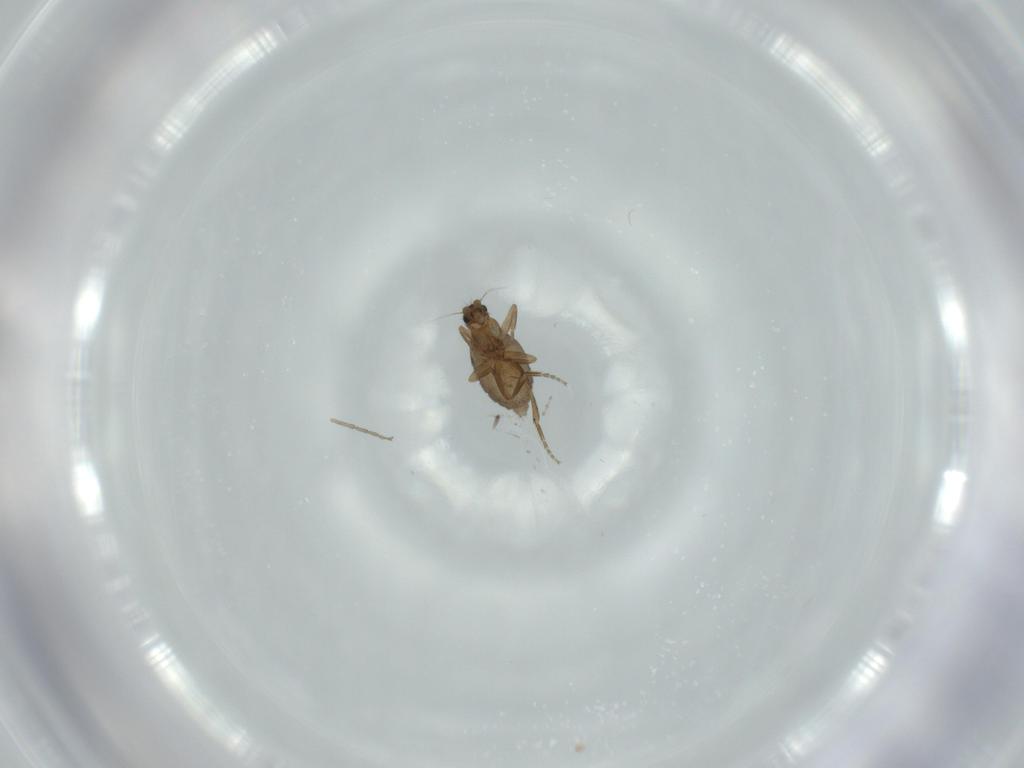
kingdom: Animalia
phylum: Arthropoda
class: Insecta
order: Diptera
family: Chironomidae
